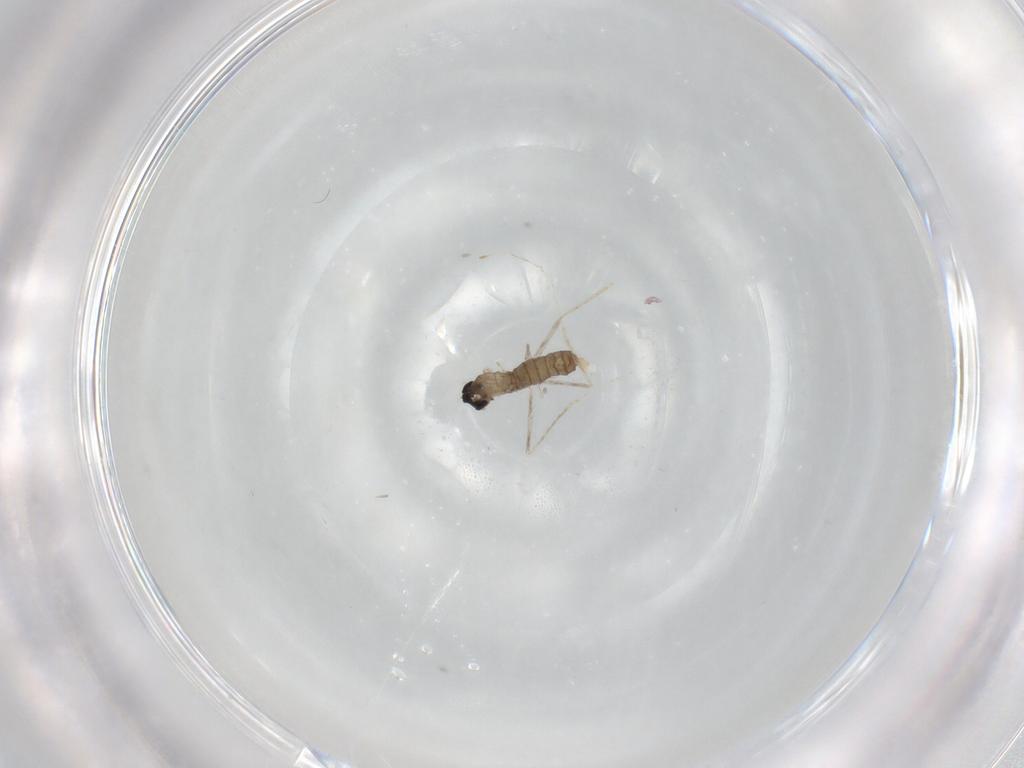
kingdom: Animalia
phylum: Arthropoda
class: Insecta
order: Diptera
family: Cecidomyiidae
